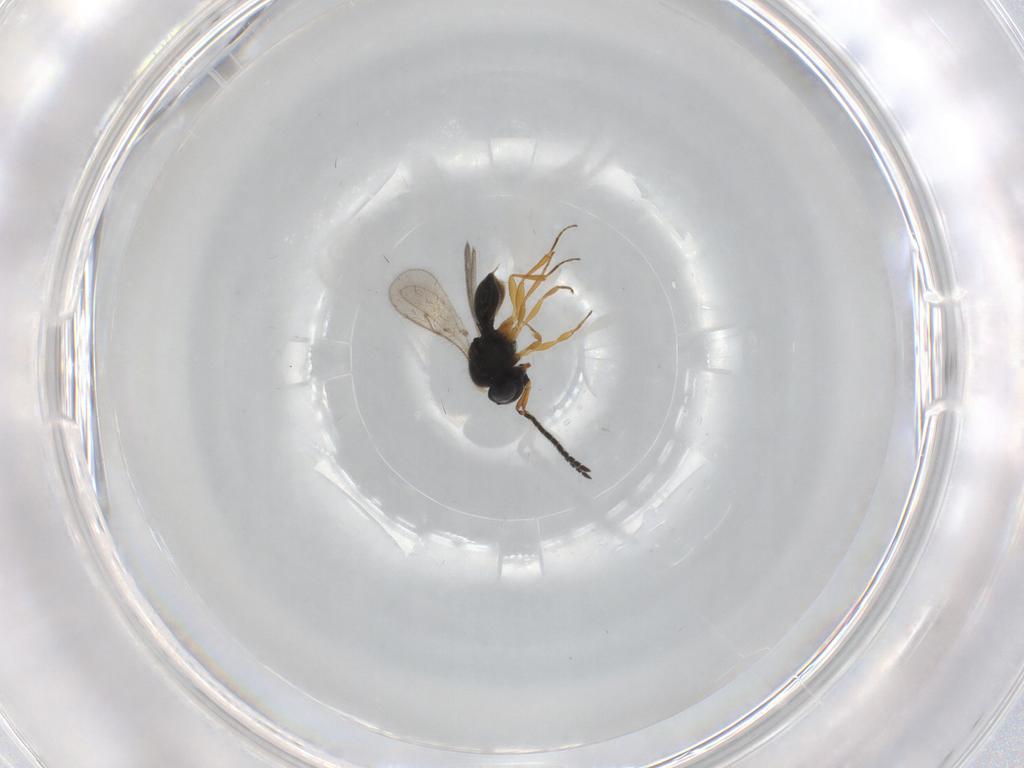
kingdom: Animalia
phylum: Arthropoda
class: Insecta
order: Hymenoptera
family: Scelionidae
